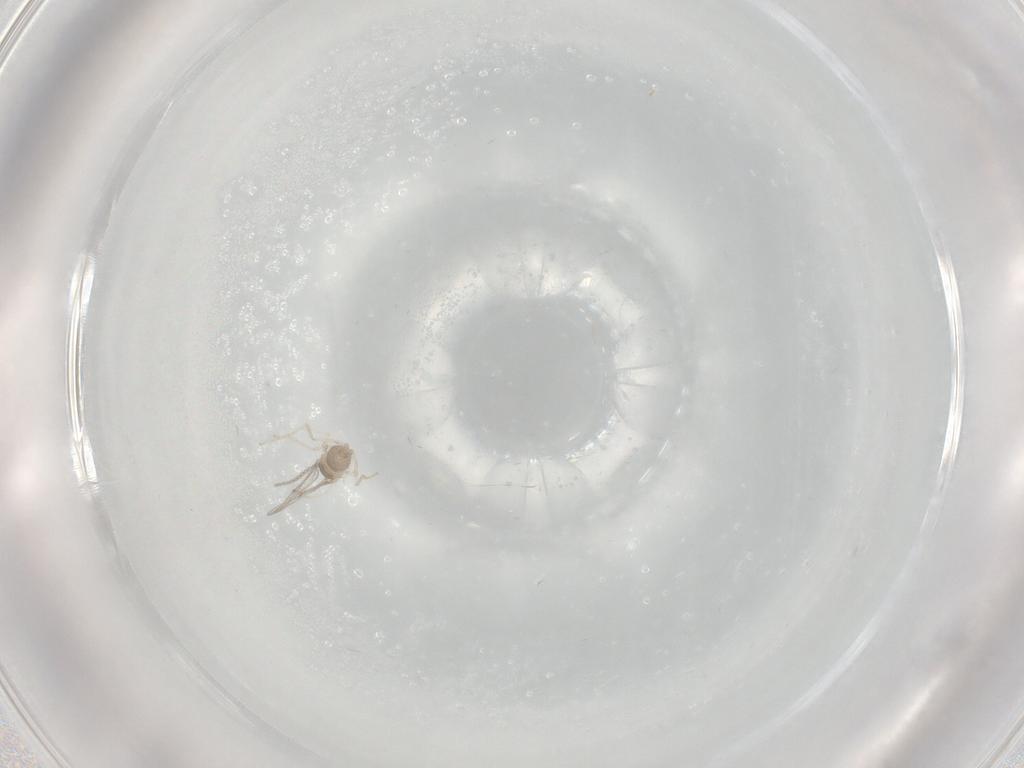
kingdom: Animalia
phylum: Arthropoda
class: Insecta
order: Diptera
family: Cecidomyiidae
